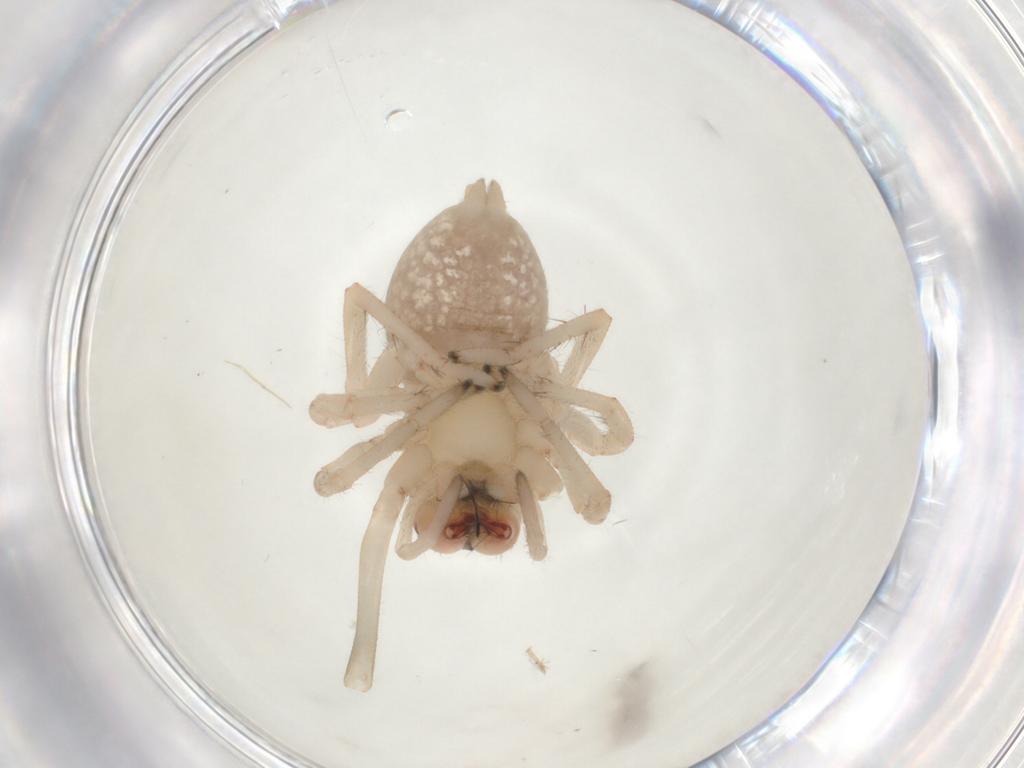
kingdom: Animalia
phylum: Arthropoda
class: Arachnida
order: Araneae
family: Cheiracanthiidae
